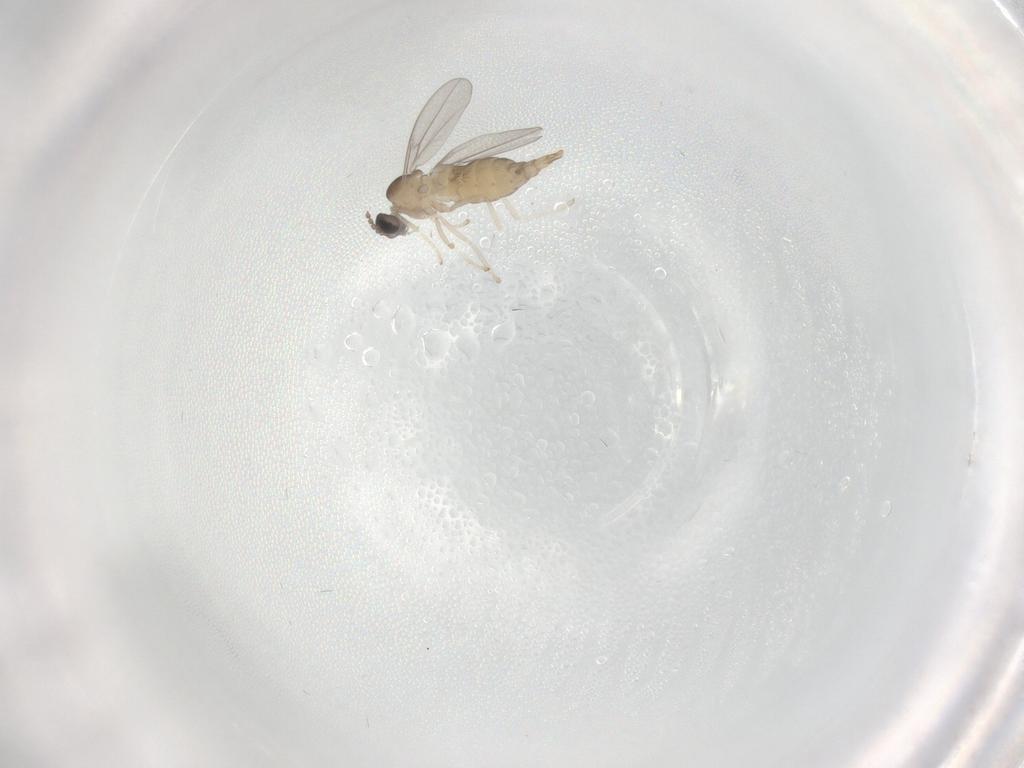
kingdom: Animalia
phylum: Arthropoda
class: Insecta
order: Diptera
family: Cecidomyiidae
